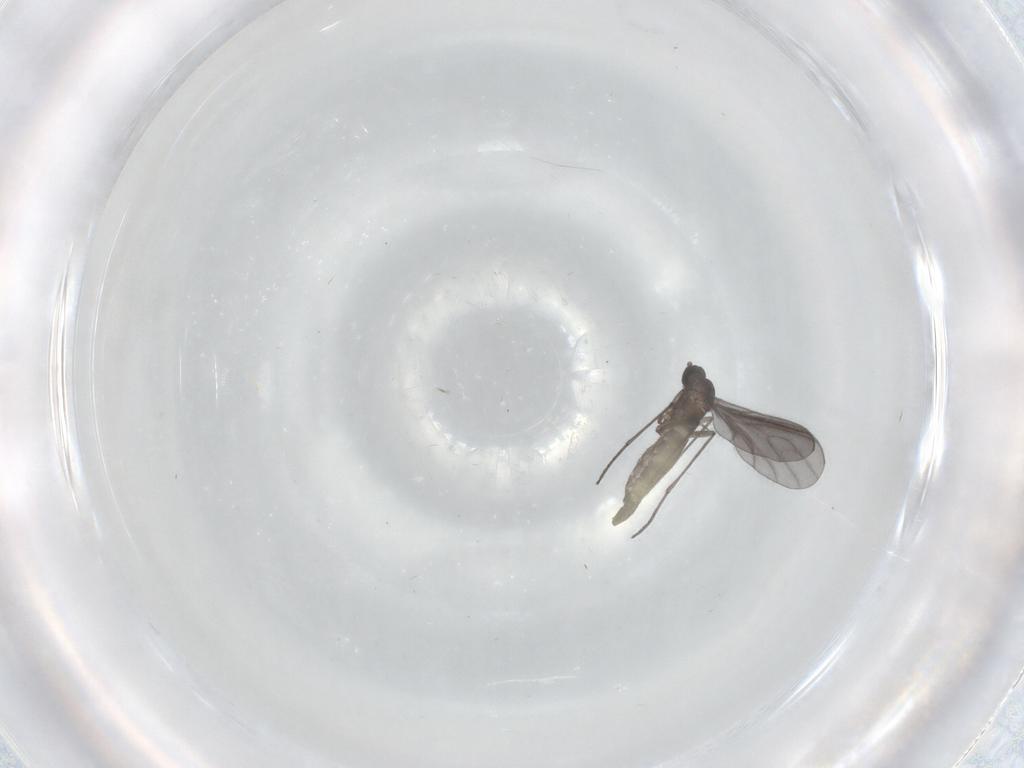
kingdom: Animalia
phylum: Arthropoda
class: Insecta
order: Diptera
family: Sciaridae
